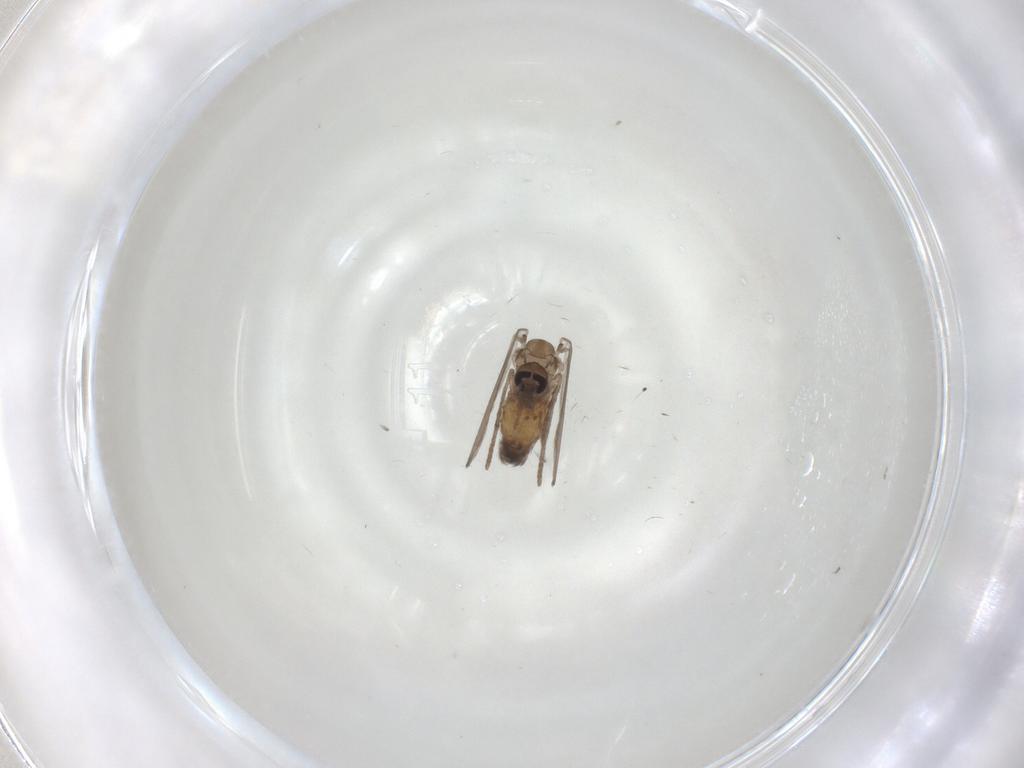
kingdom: Animalia
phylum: Arthropoda
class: Insecta
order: Diptera
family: Psychodidae
